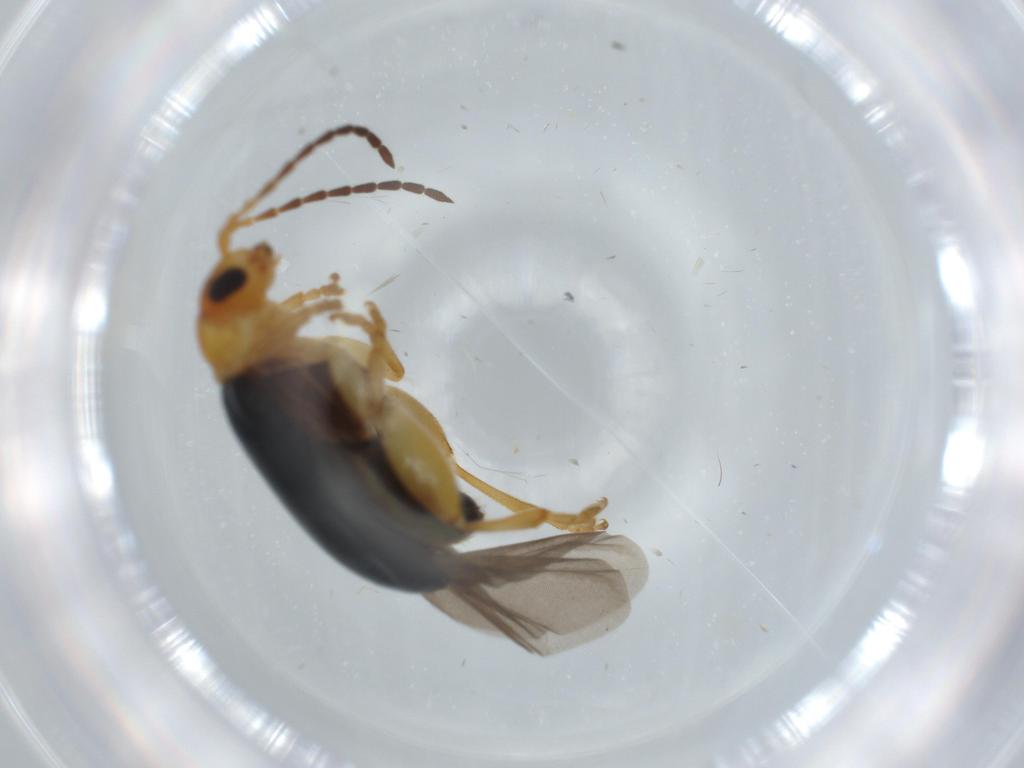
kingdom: Animalia
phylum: Arthropoda
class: Insecta
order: Coleoptera
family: Chrysomelidae
